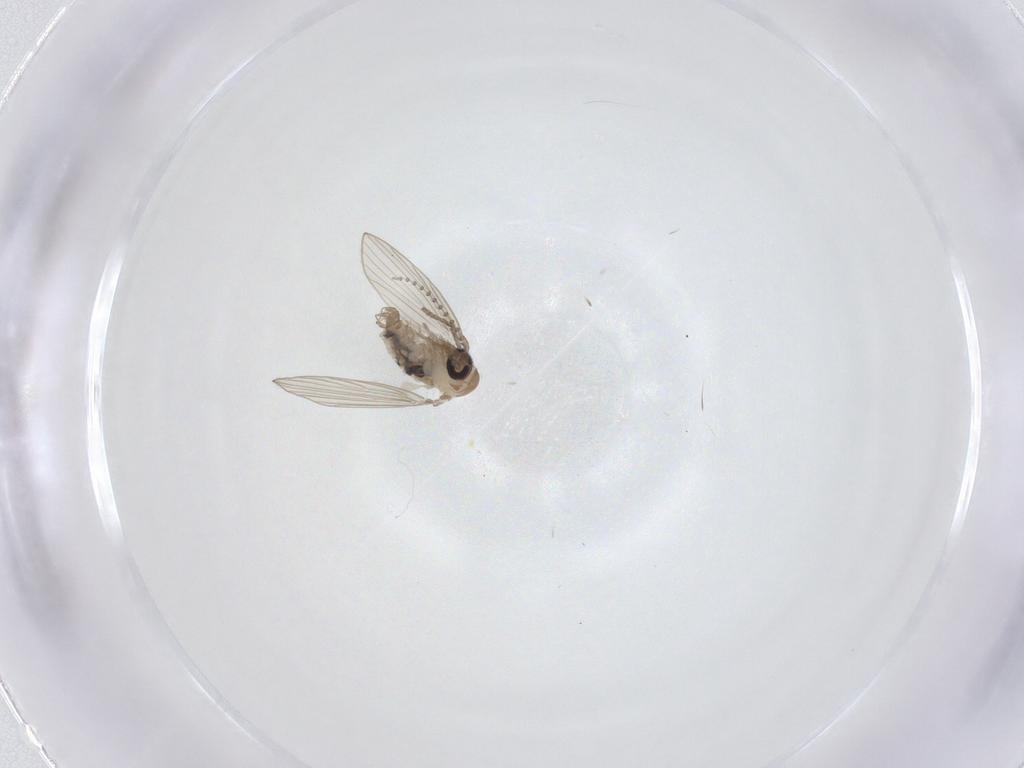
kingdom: Animalia
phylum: Arthropoda
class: Insecta
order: Diptera
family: Psychodidae
